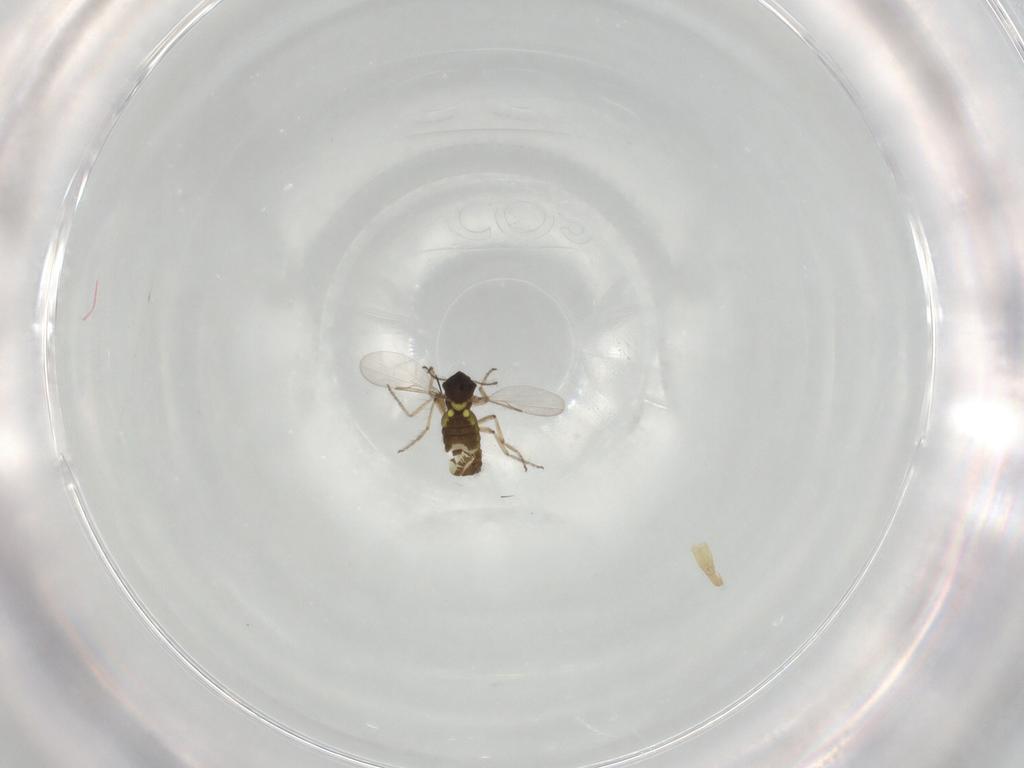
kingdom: Animalia
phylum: Arthropoda
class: Insecta
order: Diptera
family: Ceratopogonidae
